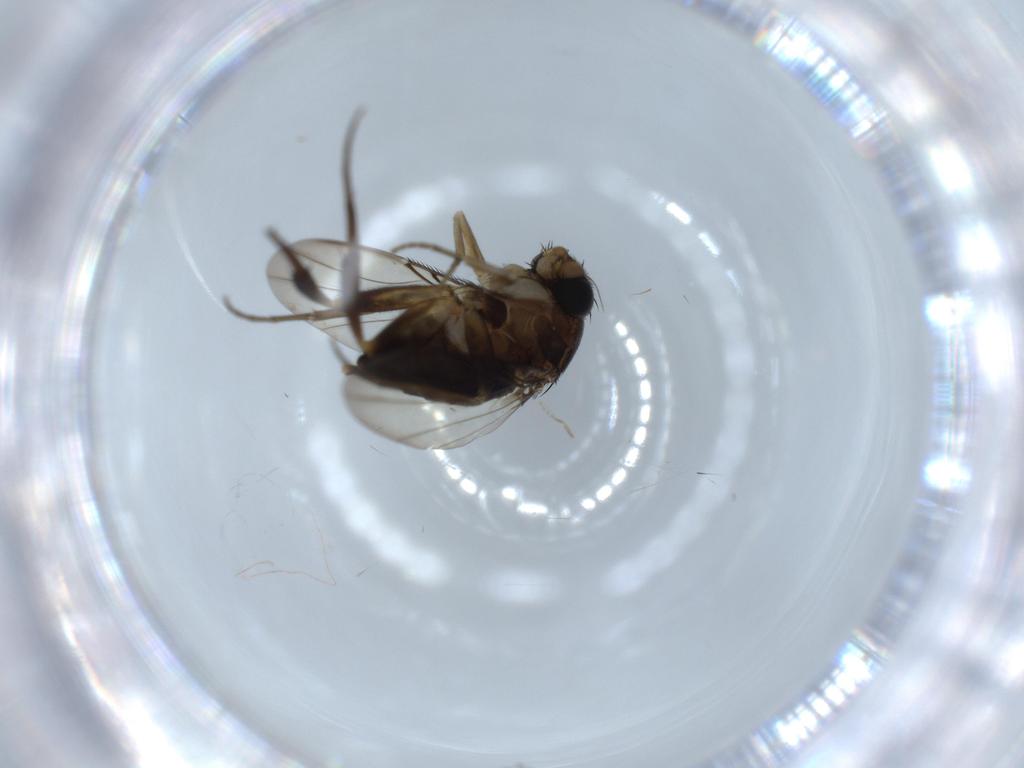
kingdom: Animalia
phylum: Arthropoda
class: Insecta
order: Diptera
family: Phoridae
